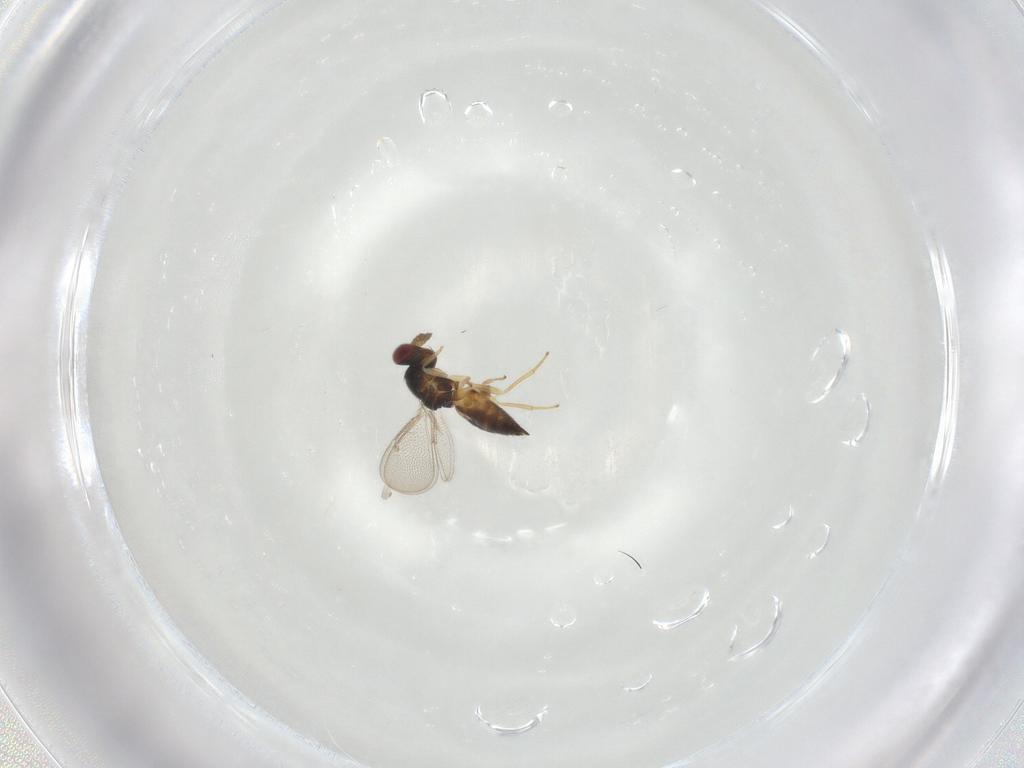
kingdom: Animalia
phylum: Arthropoda
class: Insecta
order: Hymenoptera
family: Eulophidae
